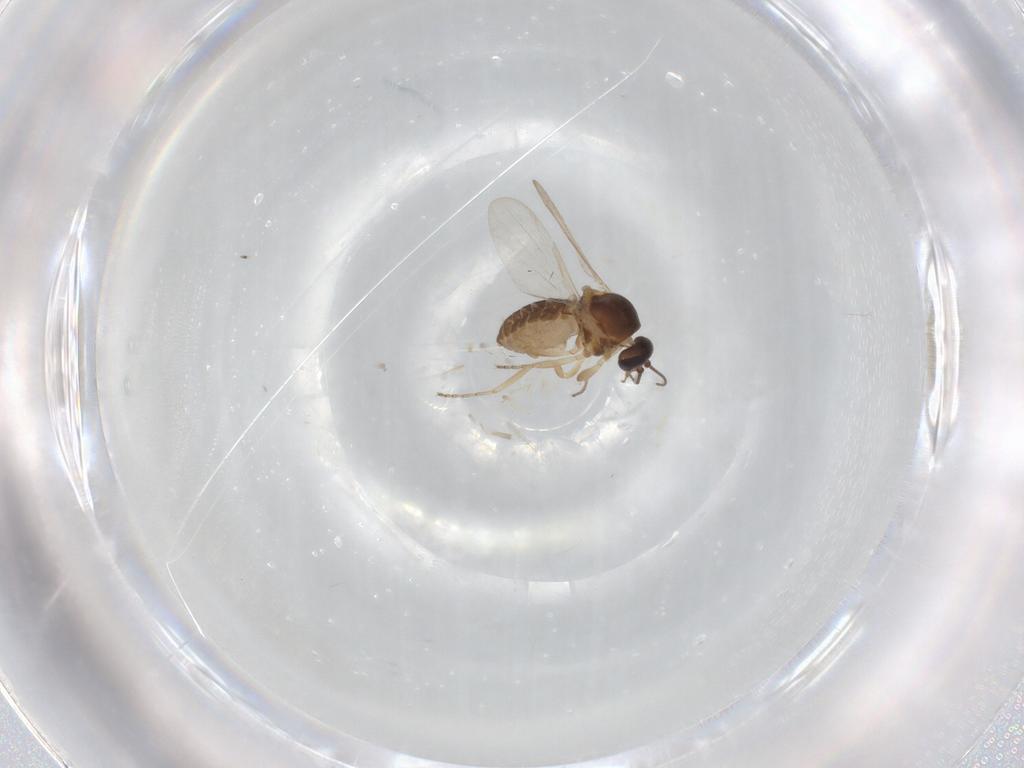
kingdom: Animalia
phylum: Arthropoda
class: Insecta
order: Diptera
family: Chloropidae
